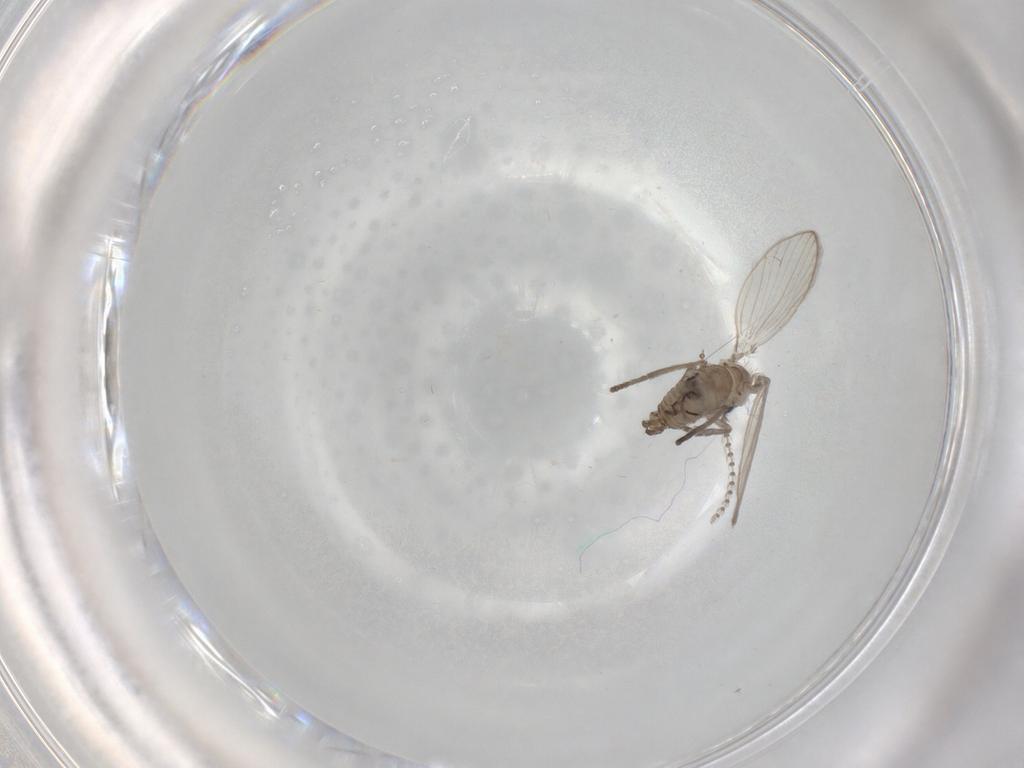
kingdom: Animalia
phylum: Arthropoda
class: Insecta
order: Diptera
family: Psychodidae
